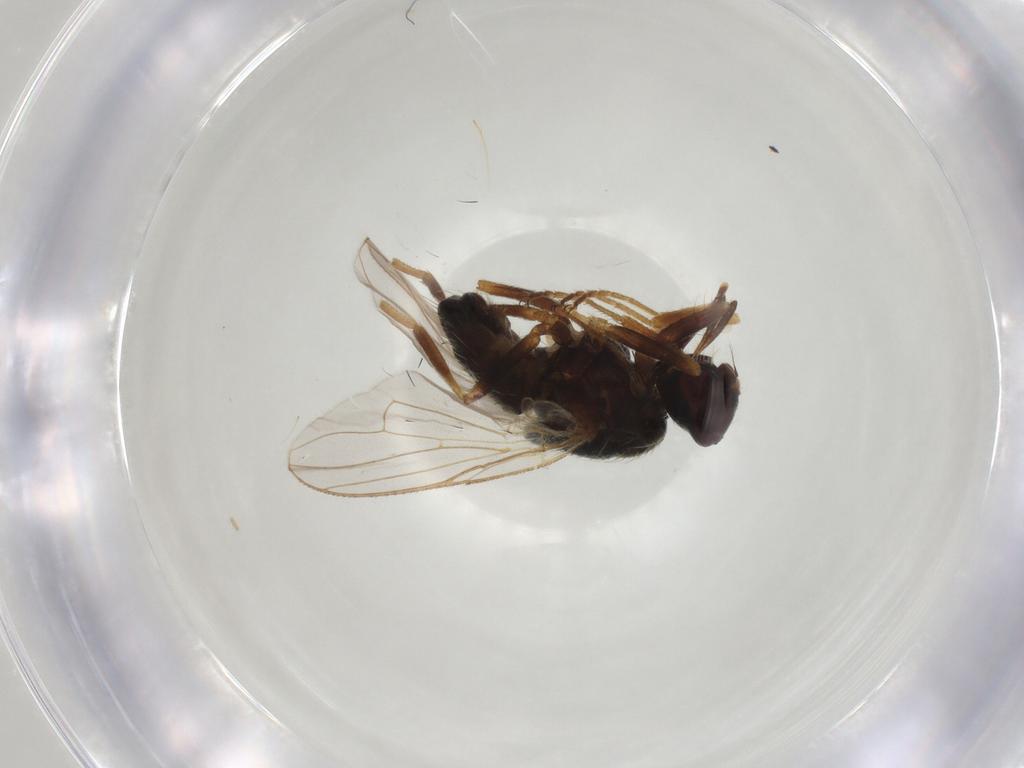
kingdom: Animalia
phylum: Arthropoda
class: Insecta
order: Diptera
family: Muscidae
